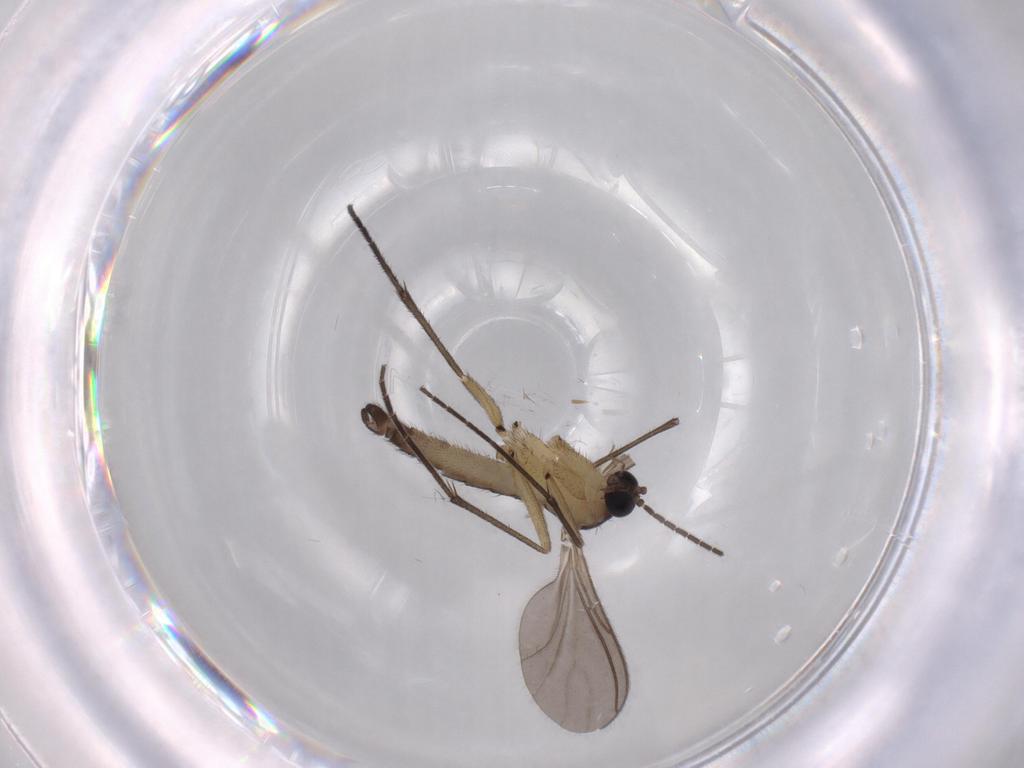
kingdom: Animalia
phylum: Arthropoda
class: Insecta
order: Diptera
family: Sciaridae
